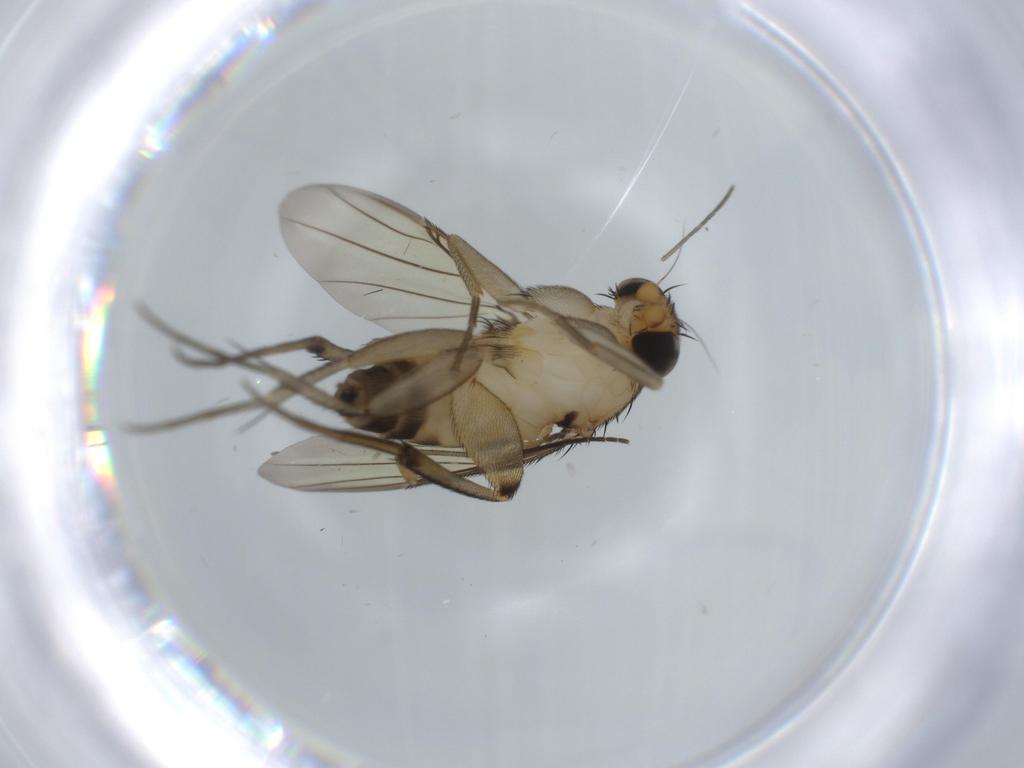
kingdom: Animalia
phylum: Arthropoda
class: Insecta
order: Diptera
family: Phoridae
